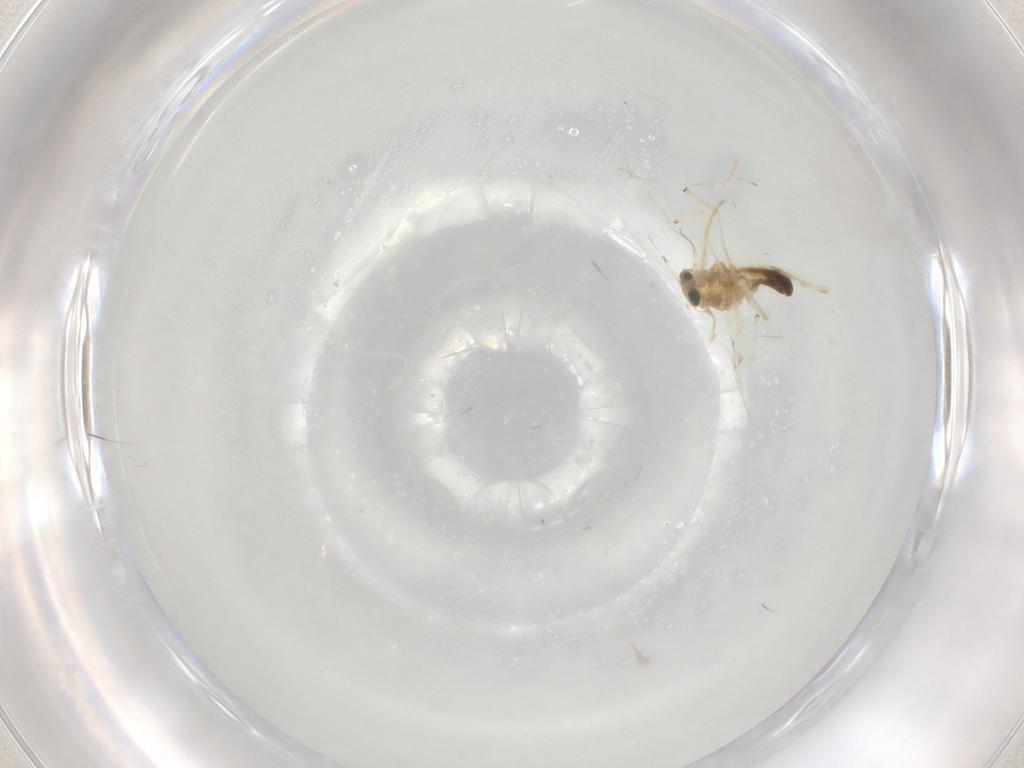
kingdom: Animalia
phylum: Arthropoda
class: Insecta
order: Diptera
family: Chironomidae
